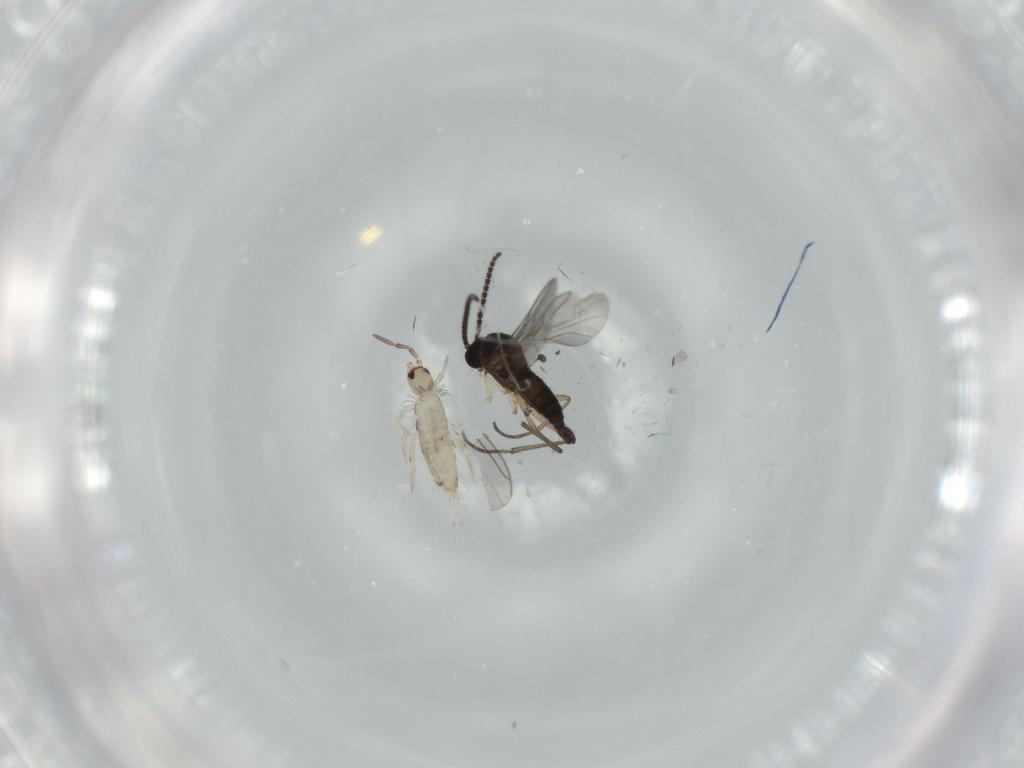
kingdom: Animalia
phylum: Arthropoda
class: Insecta
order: Diptera
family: Sciaridae
